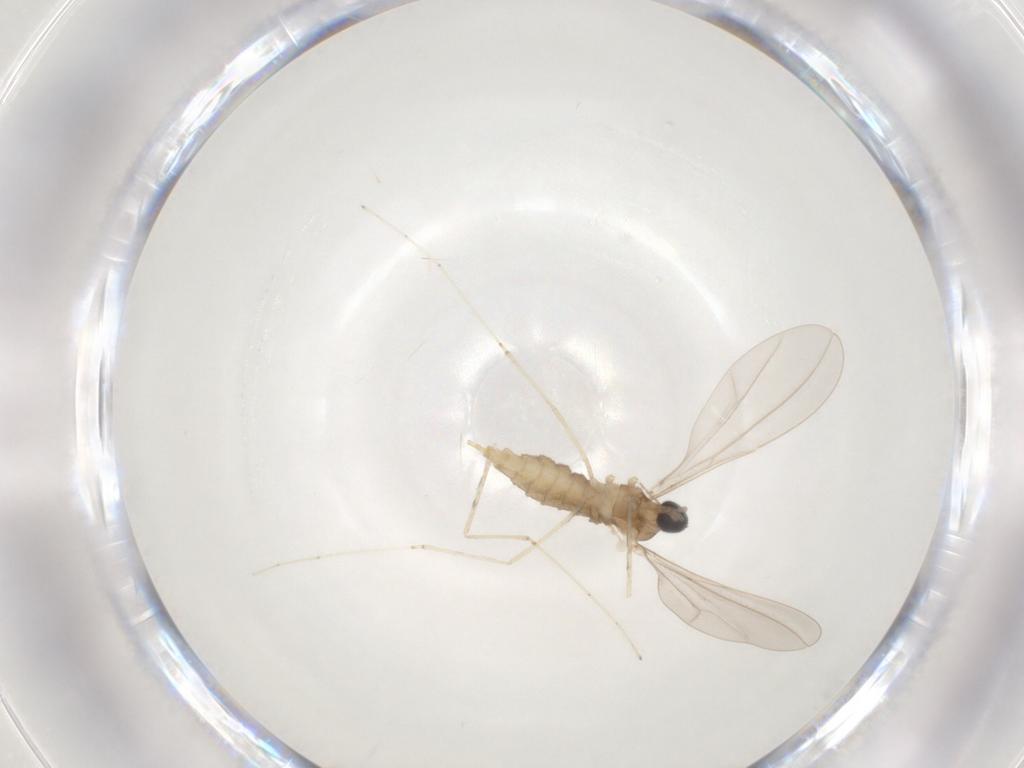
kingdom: Animalia
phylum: Arthropoda
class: Insecta
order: Diptera
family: Cecidomyiidae
